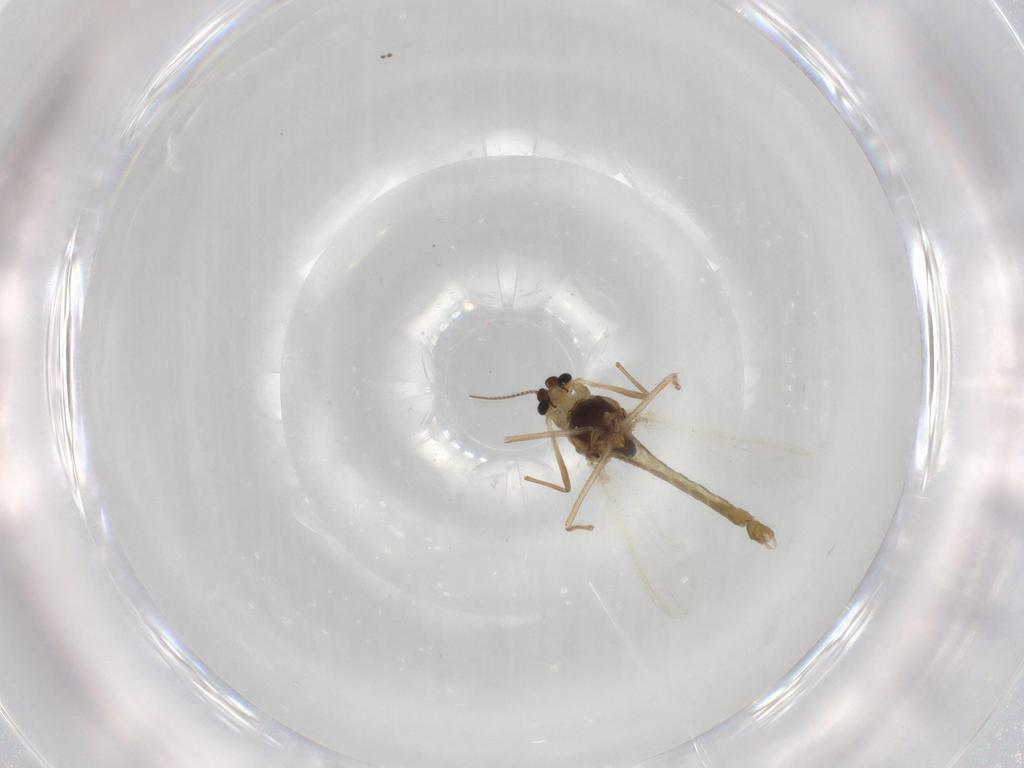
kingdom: Animalia
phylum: Arthropoda
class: Insecta
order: Diptera
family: Chironomidae
